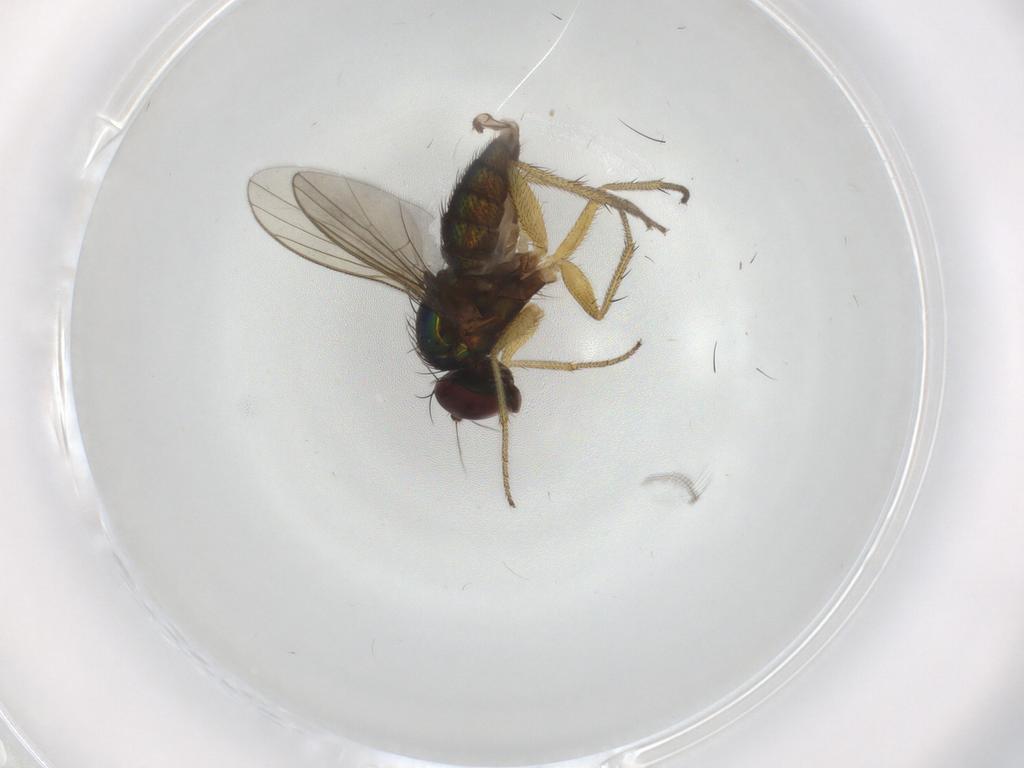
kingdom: Animalia
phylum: Arthropoda
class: Insecta
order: Diptera
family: Dolichopodidae
